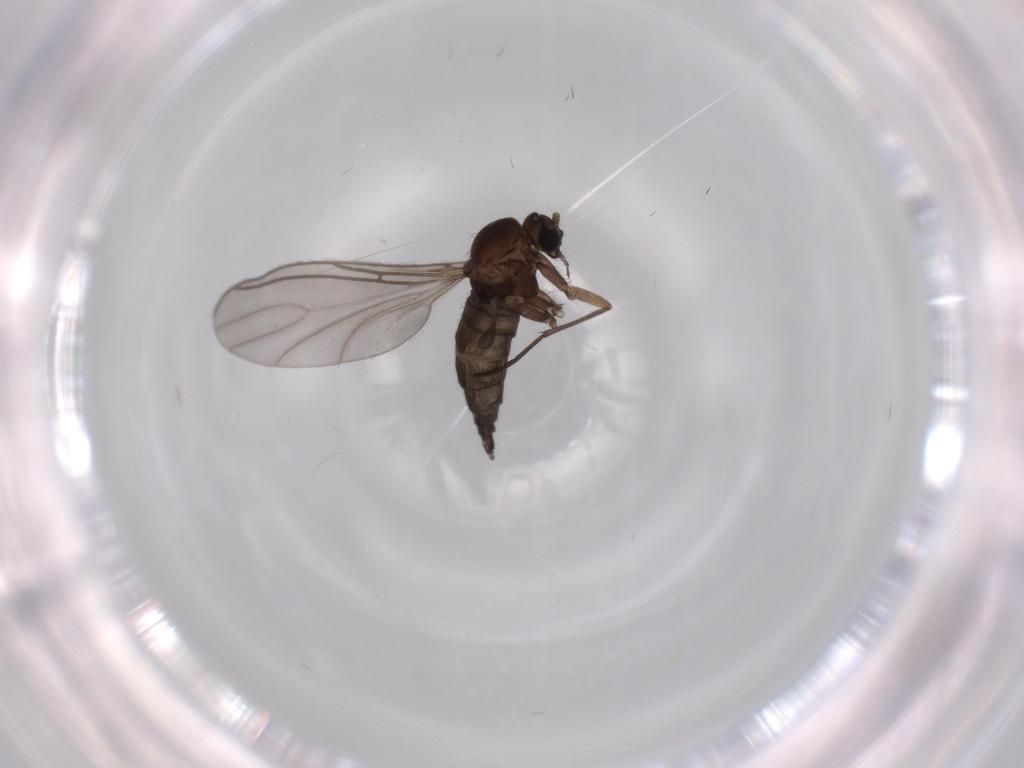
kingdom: Animalia
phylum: Arthropoda
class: Insecta
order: Diptera
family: Sciaridae
